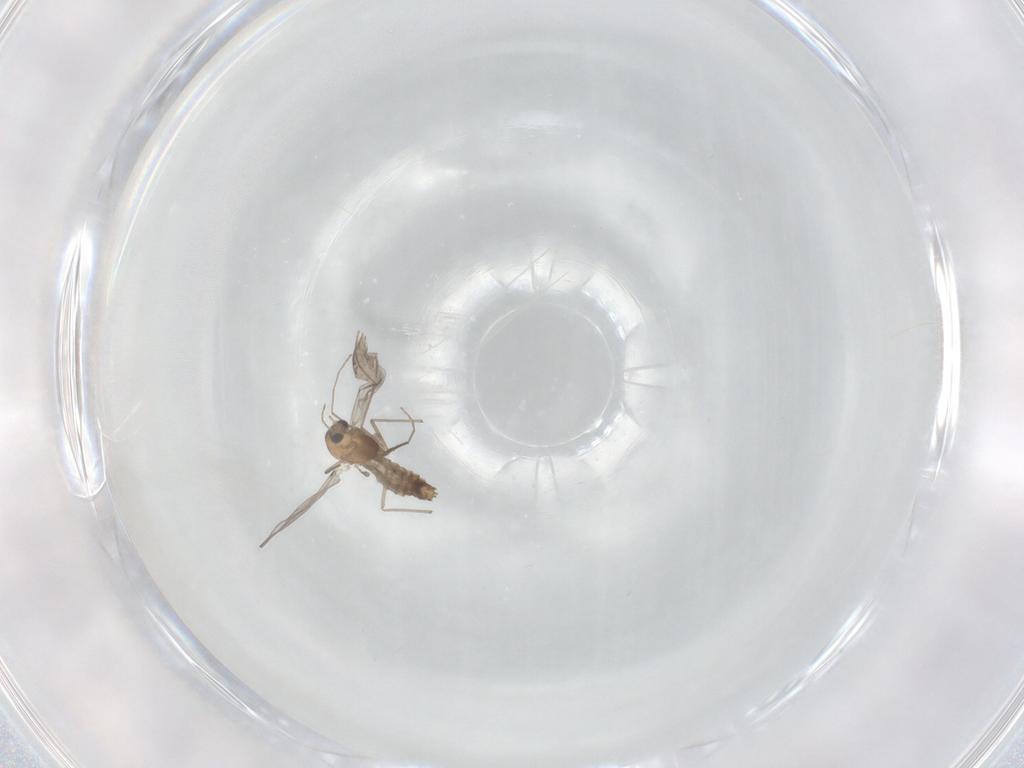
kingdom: Animalia
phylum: Arthropoda
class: Insecta
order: Diptera
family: Chironomidae
